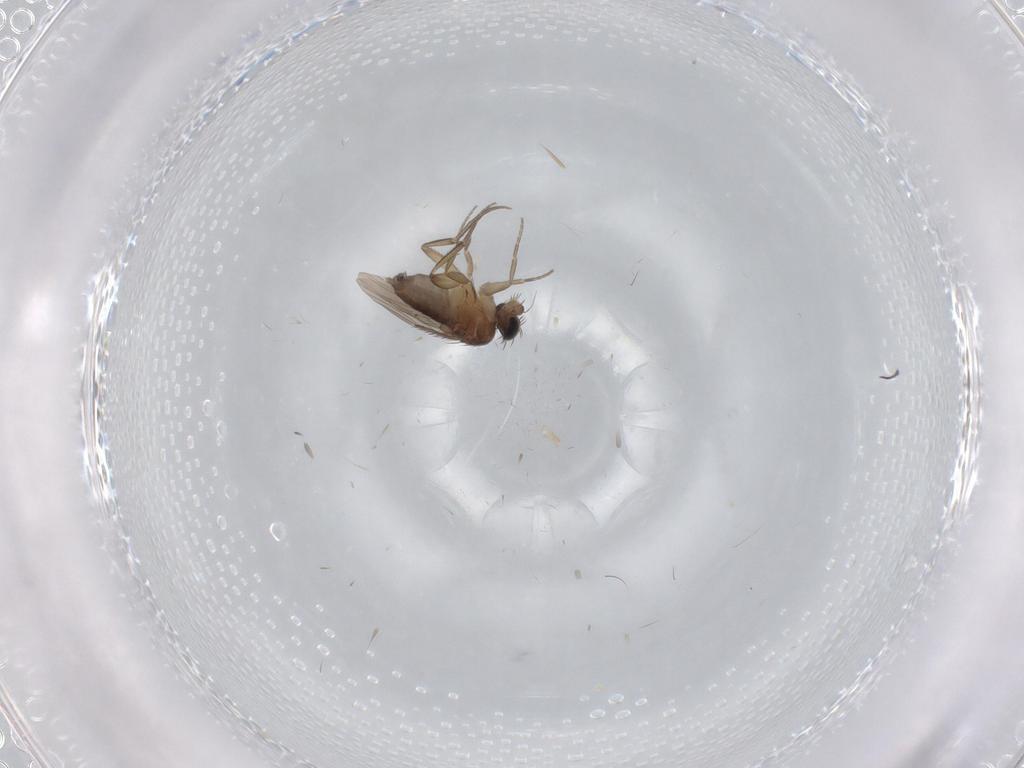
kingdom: Animalia
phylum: Arthropoda
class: Insecta
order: Diptera
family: Phoridae
